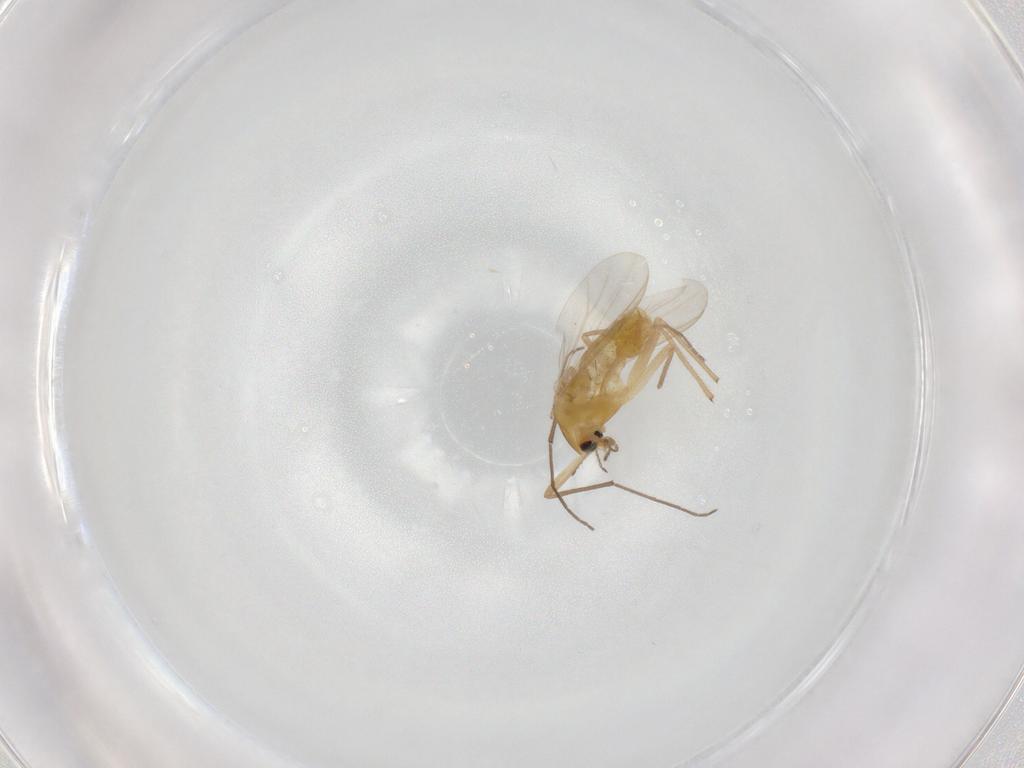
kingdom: Animalia
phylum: Arthropoda
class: Insecta
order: Diptera
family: Chironomidae
